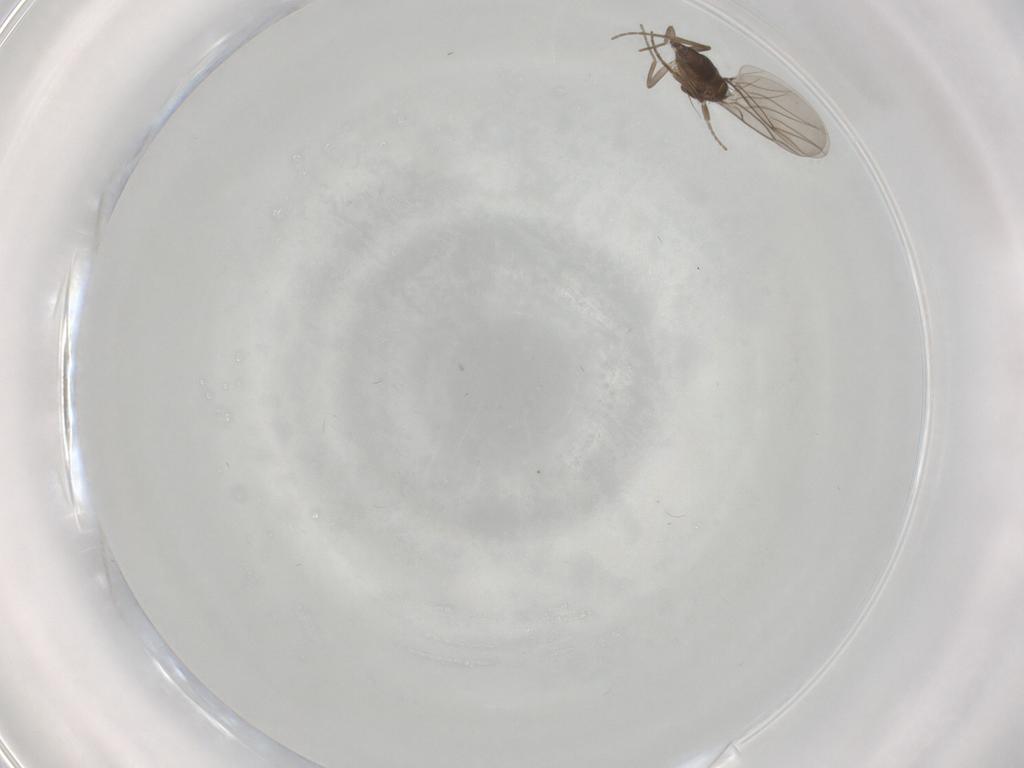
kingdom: Animalia
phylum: Arthropoda
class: Insecta
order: Diptera
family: Phoridae
